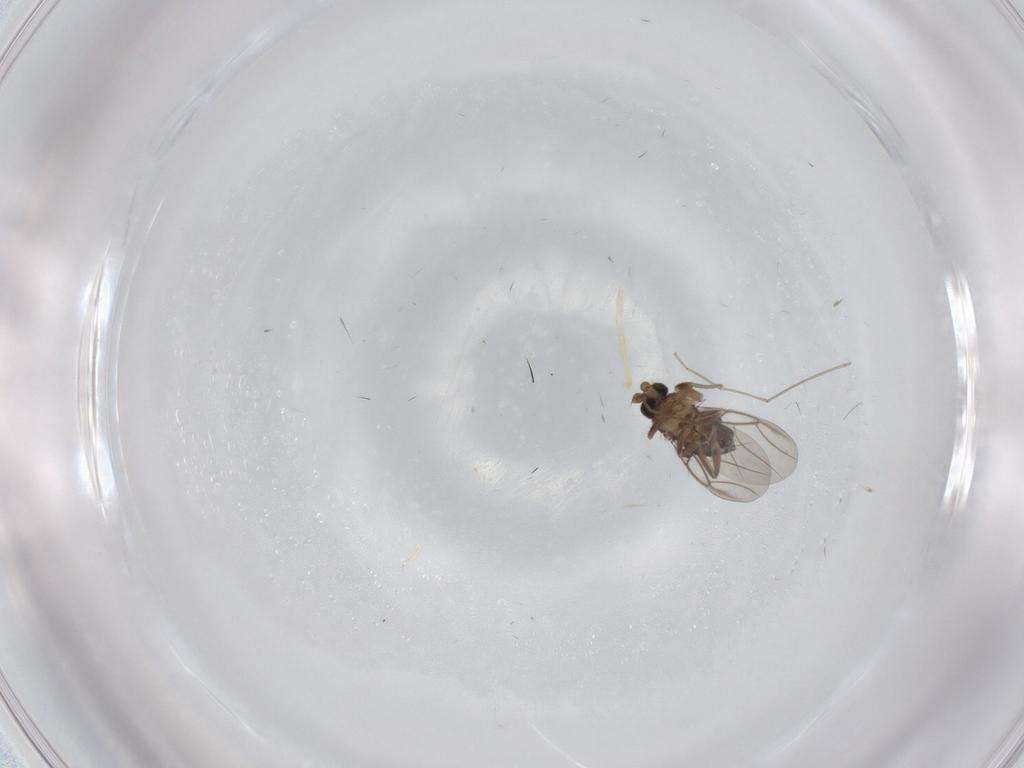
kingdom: Animalia
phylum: Arthropoda
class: Insecta
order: Diptera
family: Phoridae
